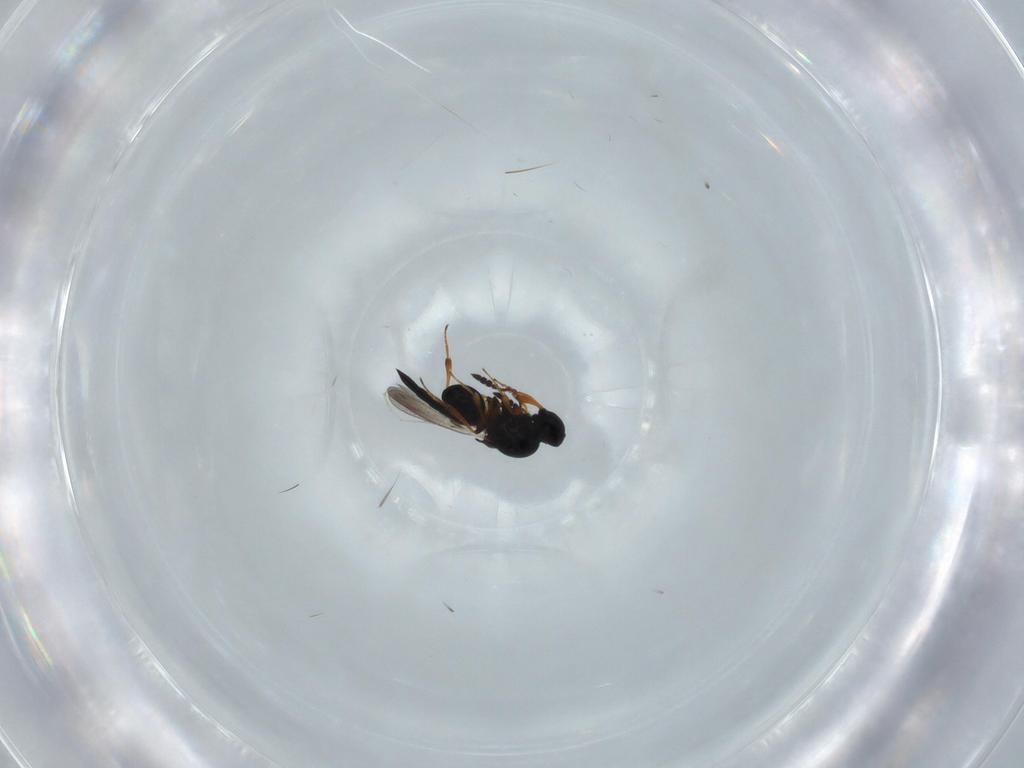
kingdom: Animalia
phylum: Arthropoda
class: Insecta
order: Hymenoptera
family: Platygastridae
